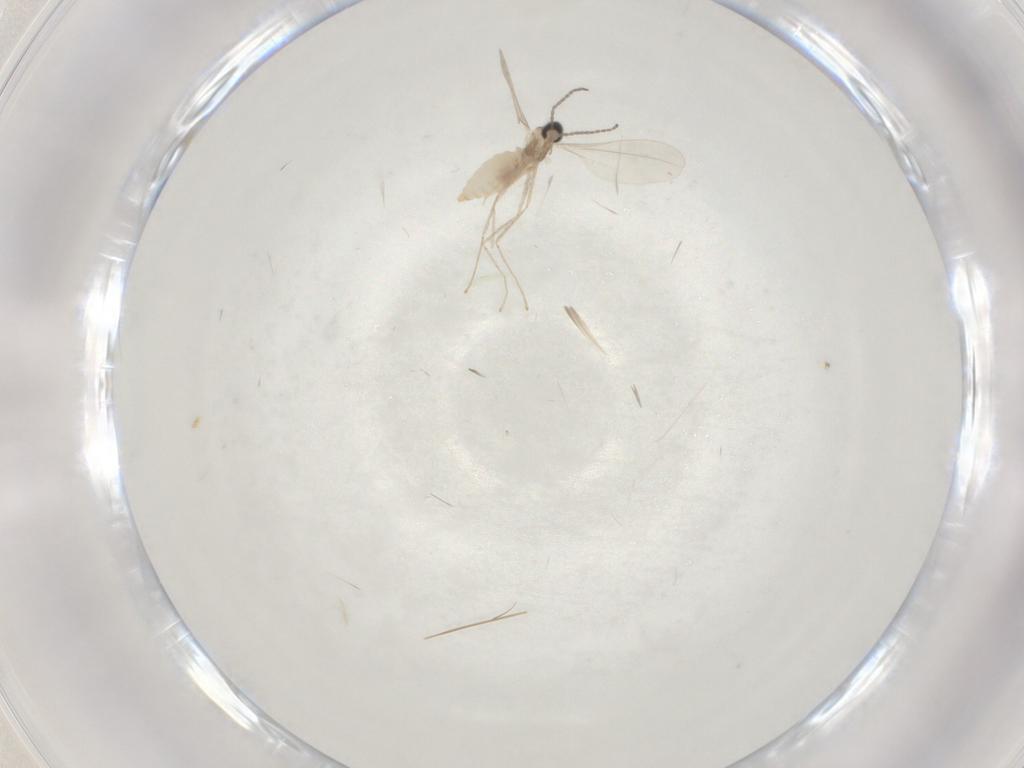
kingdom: Animalia
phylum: Arthropoda
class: Insecta
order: Diptera
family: Cecidomyiidae
